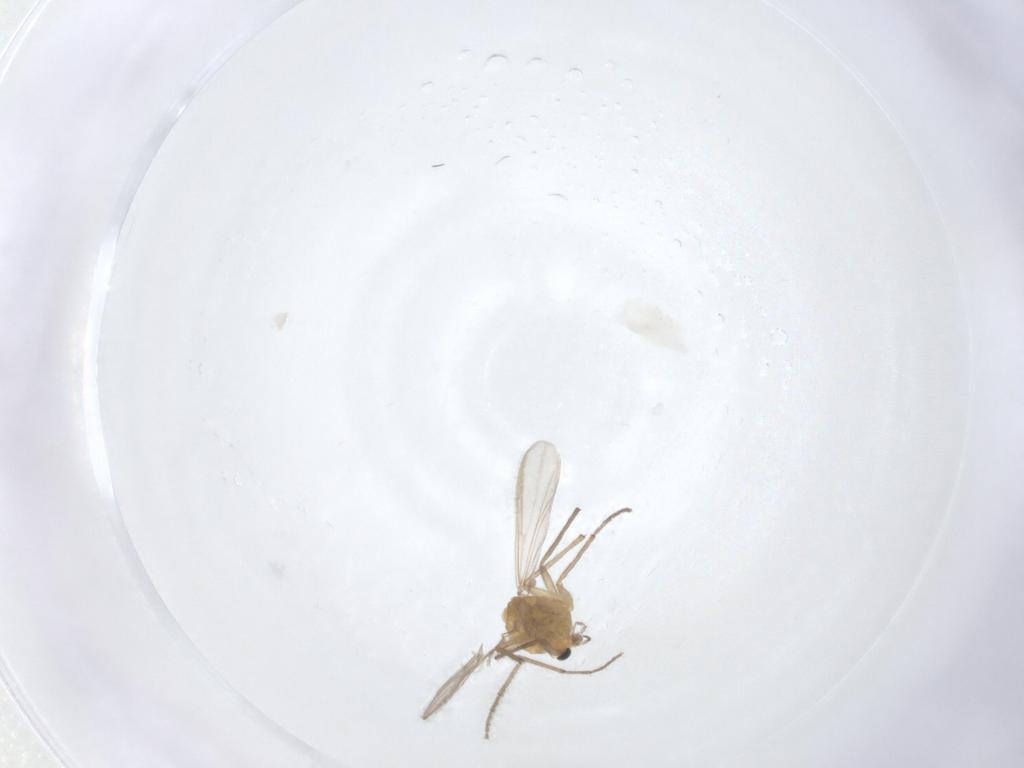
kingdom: Animalia
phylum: Arthropoda
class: Insecta
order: Diptera
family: Chironomidae
